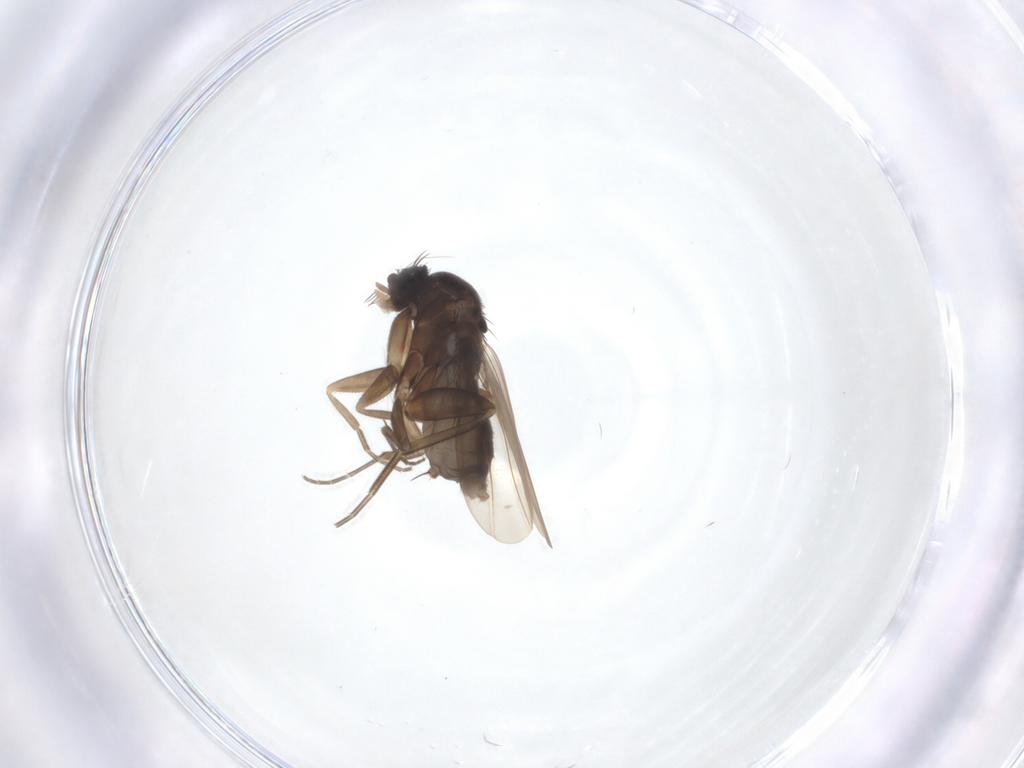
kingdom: Animalia
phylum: Arthropoda
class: Insecta
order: Diptera
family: Phoridae
